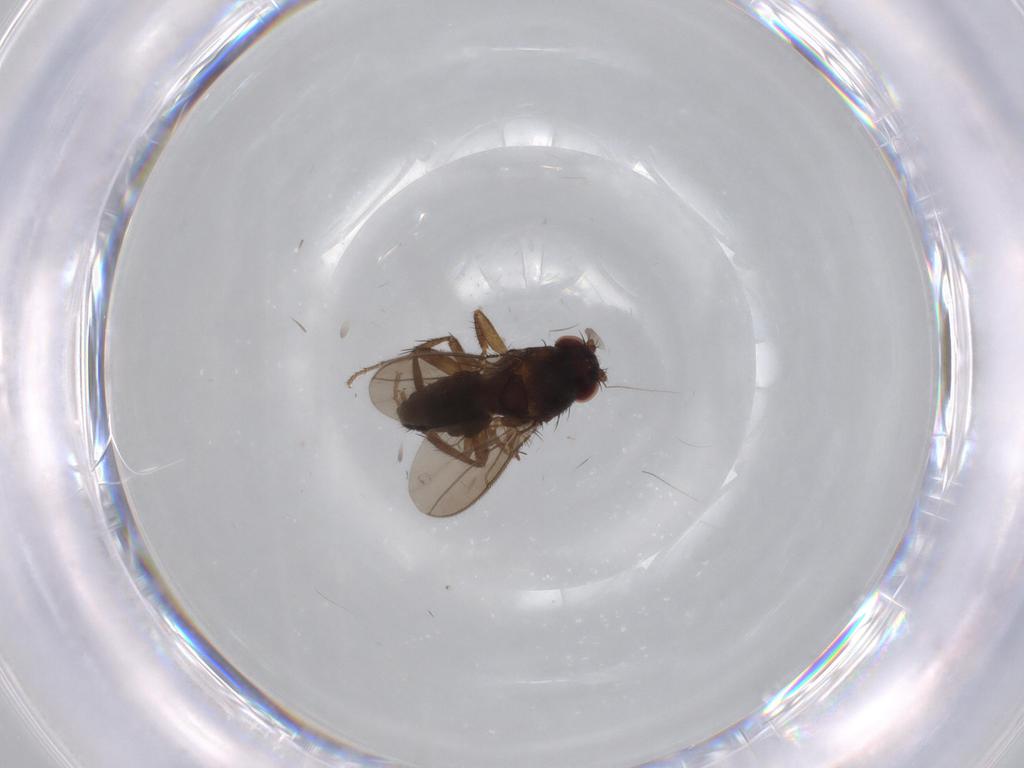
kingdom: Animalia
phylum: Arthropoda
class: Insecta
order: Diptera
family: Sphaeroceridae
